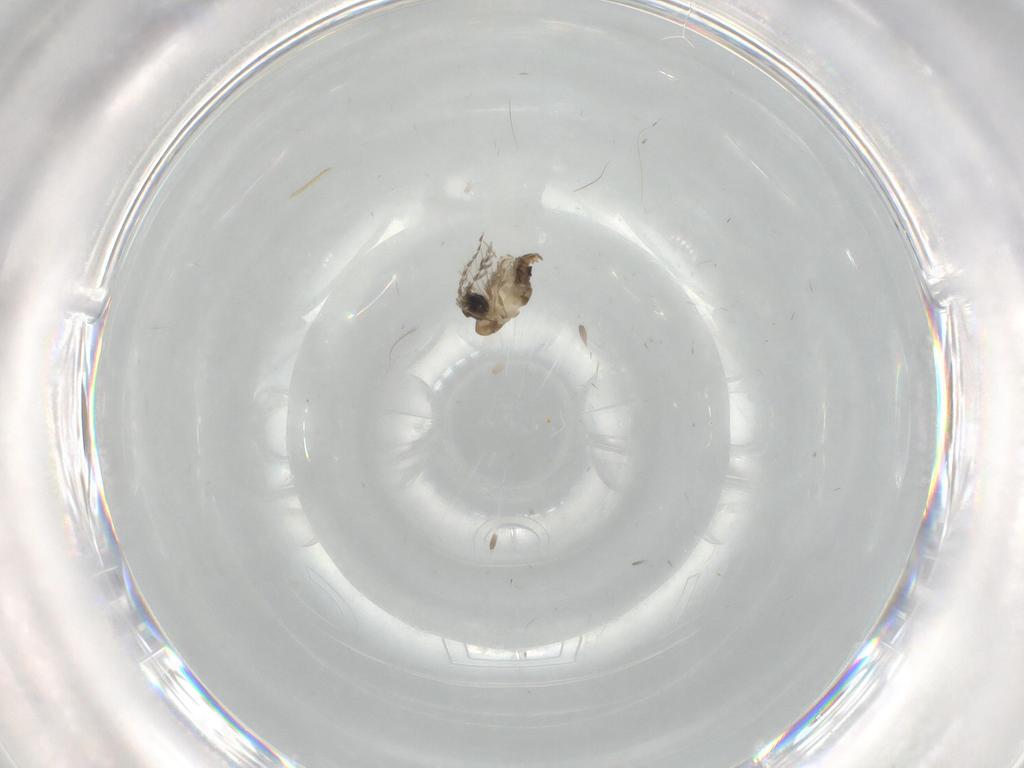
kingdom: Animalia
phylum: Arthropoda
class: Insecta
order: Diptera
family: Psychodidae
